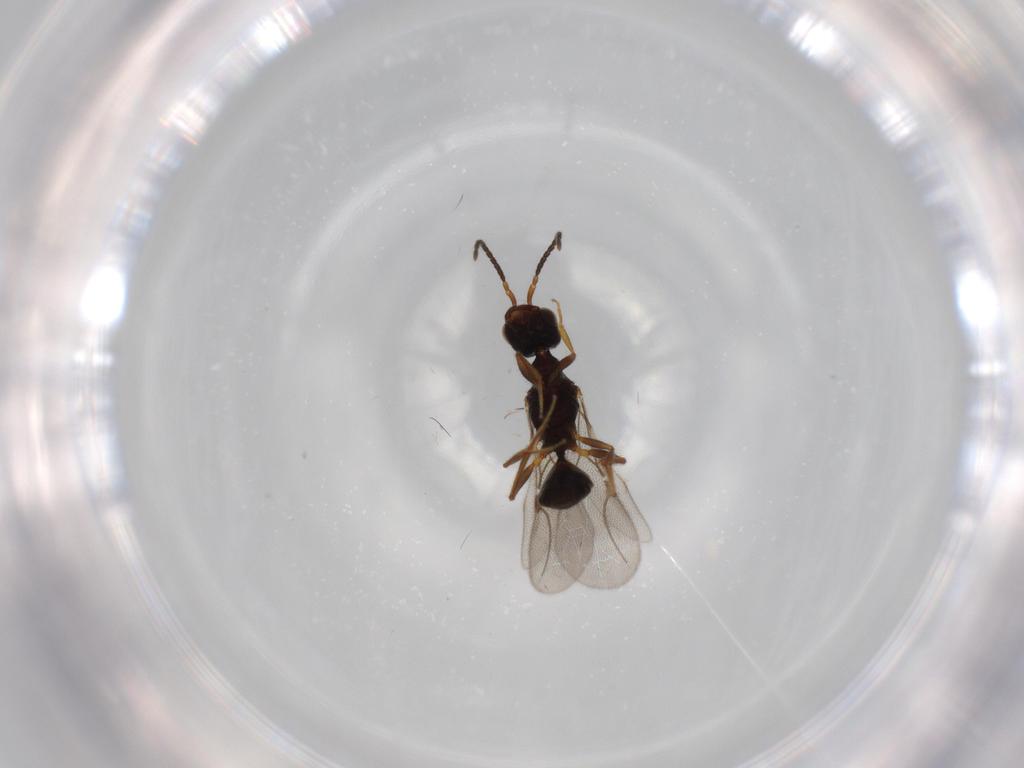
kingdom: Animalia
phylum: Arthropoda
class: Insecta
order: Hymenoptera
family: Bethylidae
